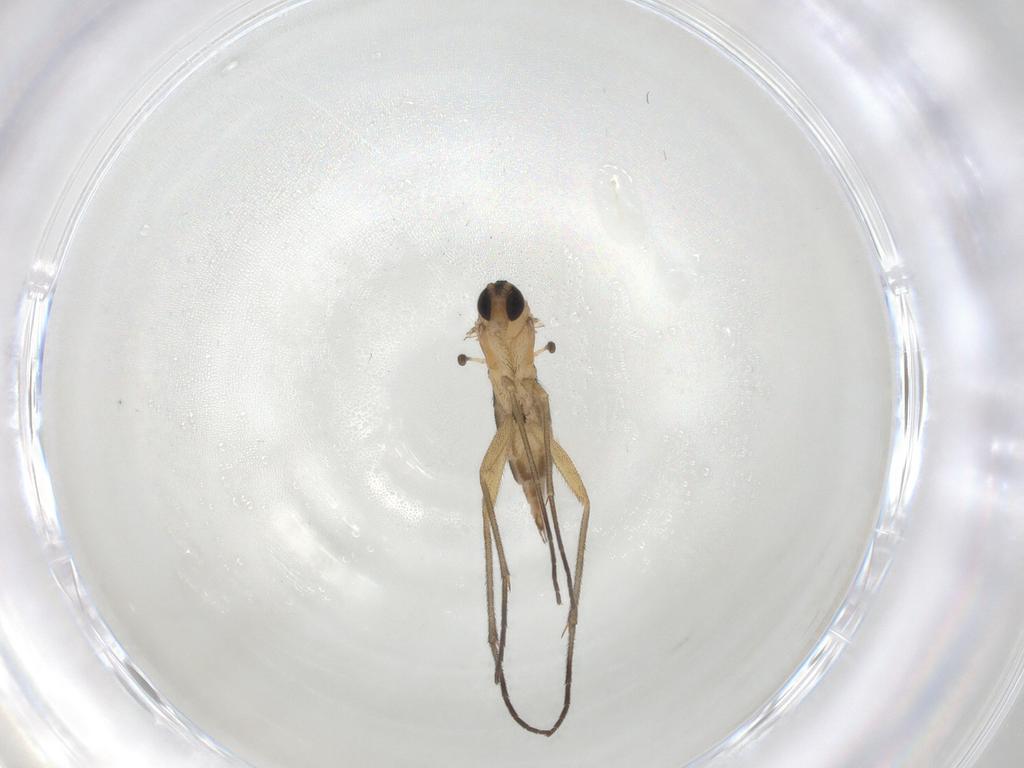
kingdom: Animalia
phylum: Arthropoda
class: Insecta
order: Diptera
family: Sciaridae
